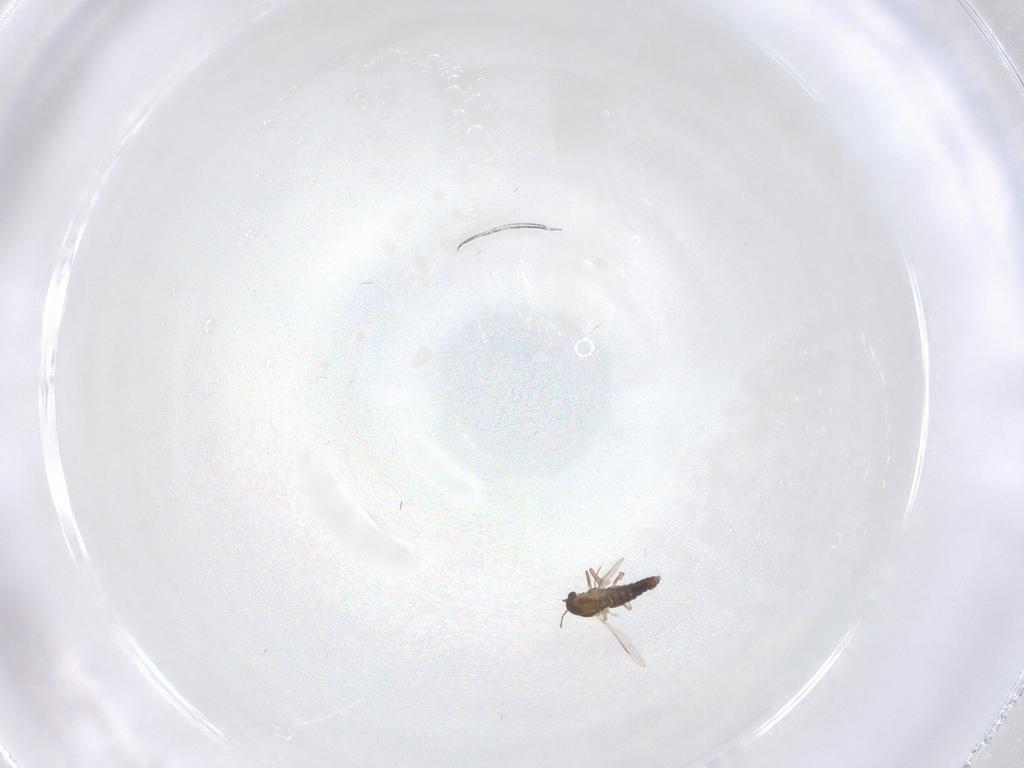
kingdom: Animalia
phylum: Arthropoda
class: Insecta
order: Diptera
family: Chironomidae
